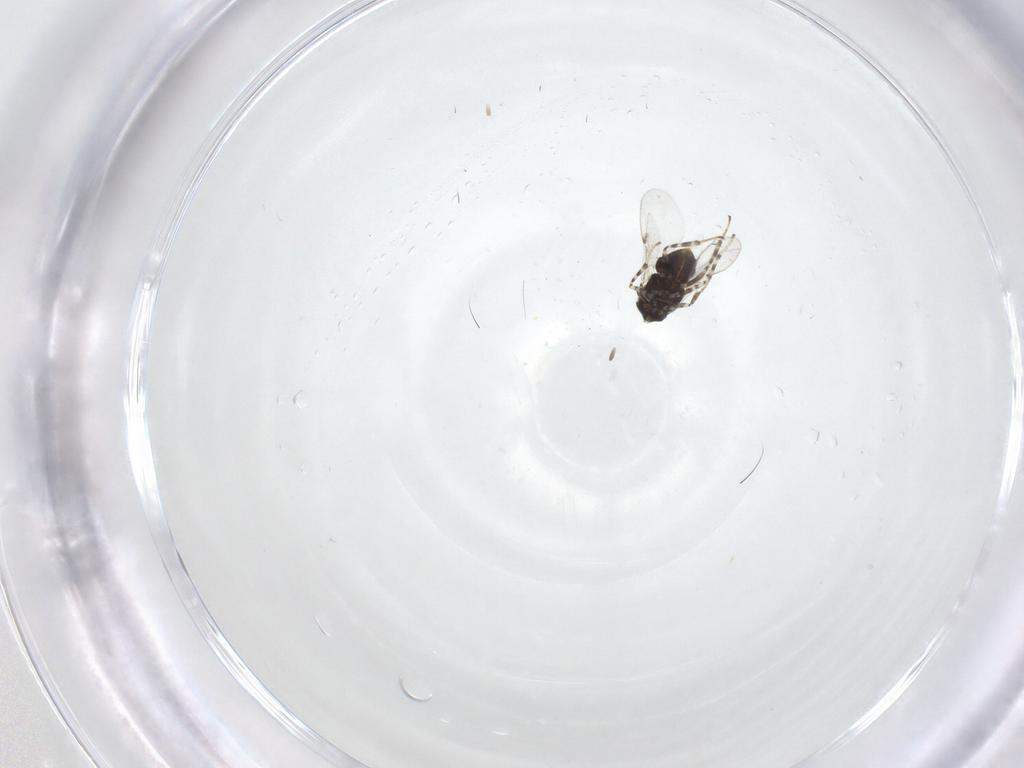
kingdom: Animalia
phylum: Arthropoda
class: Insecta
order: Hymenoptera
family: Encyrtidae
